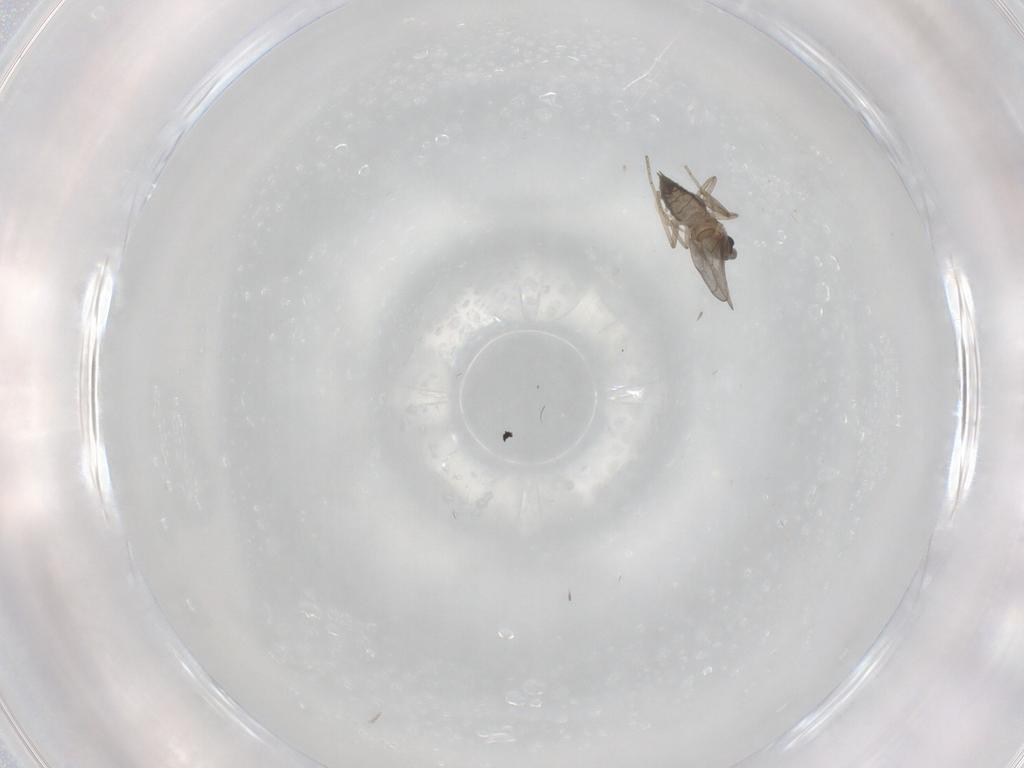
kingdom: Animalia
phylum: Arthropoda
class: Insecta
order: Diptera
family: Cecidomyiidae
